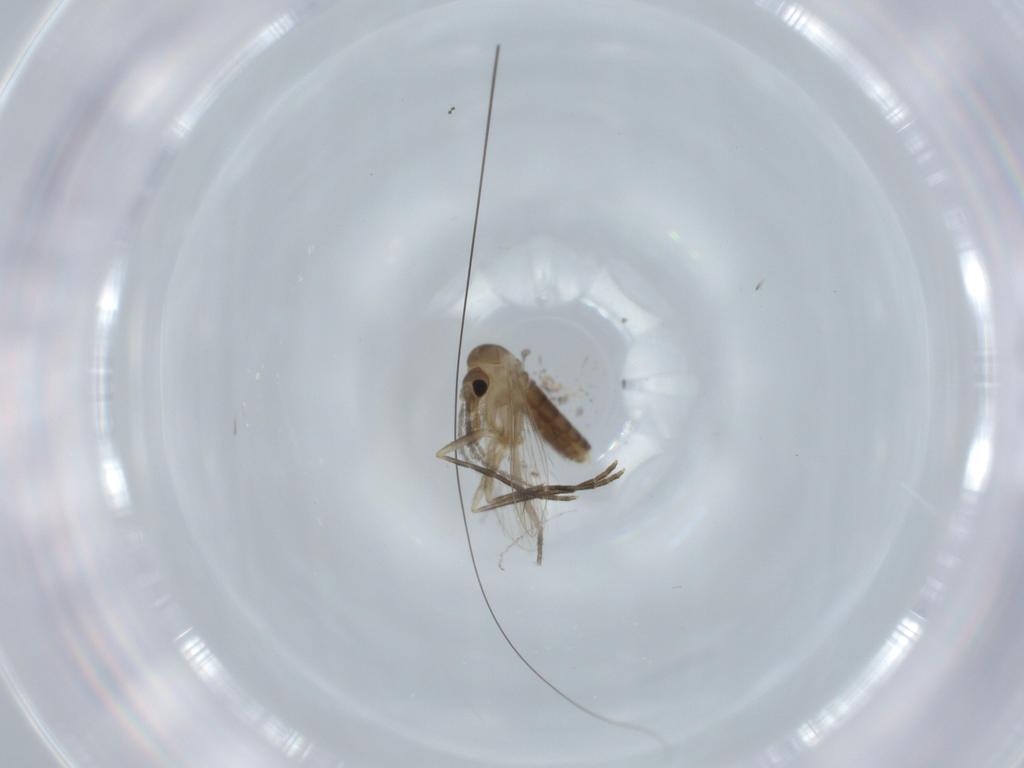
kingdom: Animalia
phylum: Arthropoda
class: Insecta
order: Diptera
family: Psychodidae
